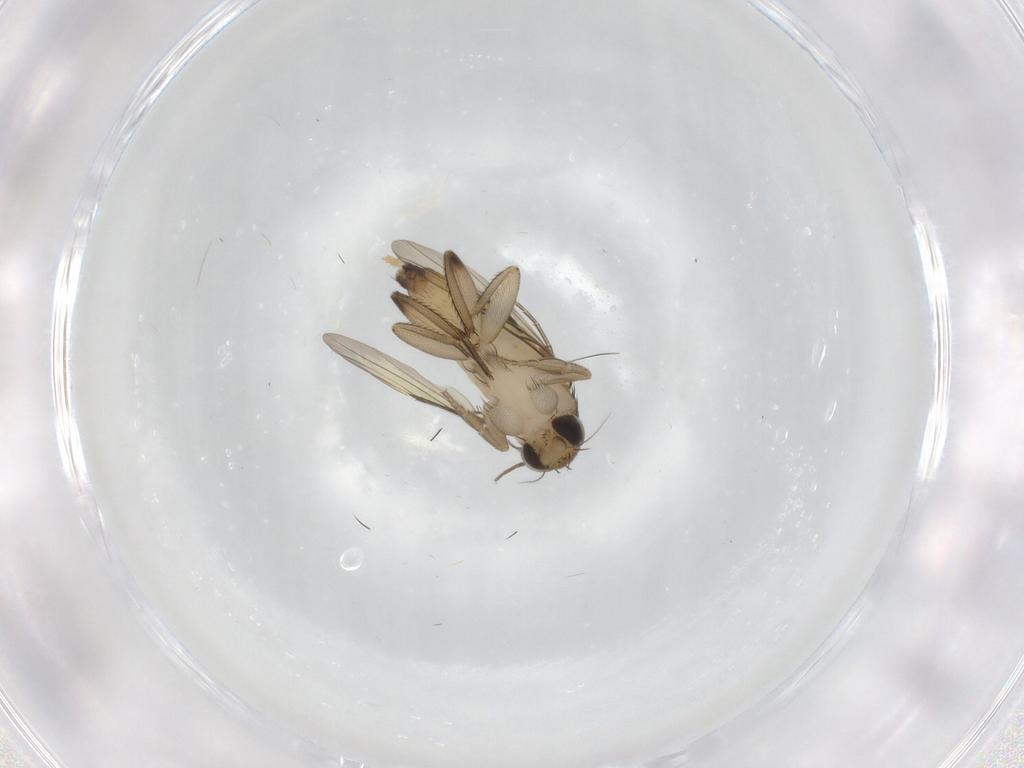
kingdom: Animalia
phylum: Arthropoda
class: Insecta
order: Diptera
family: Phoridae
